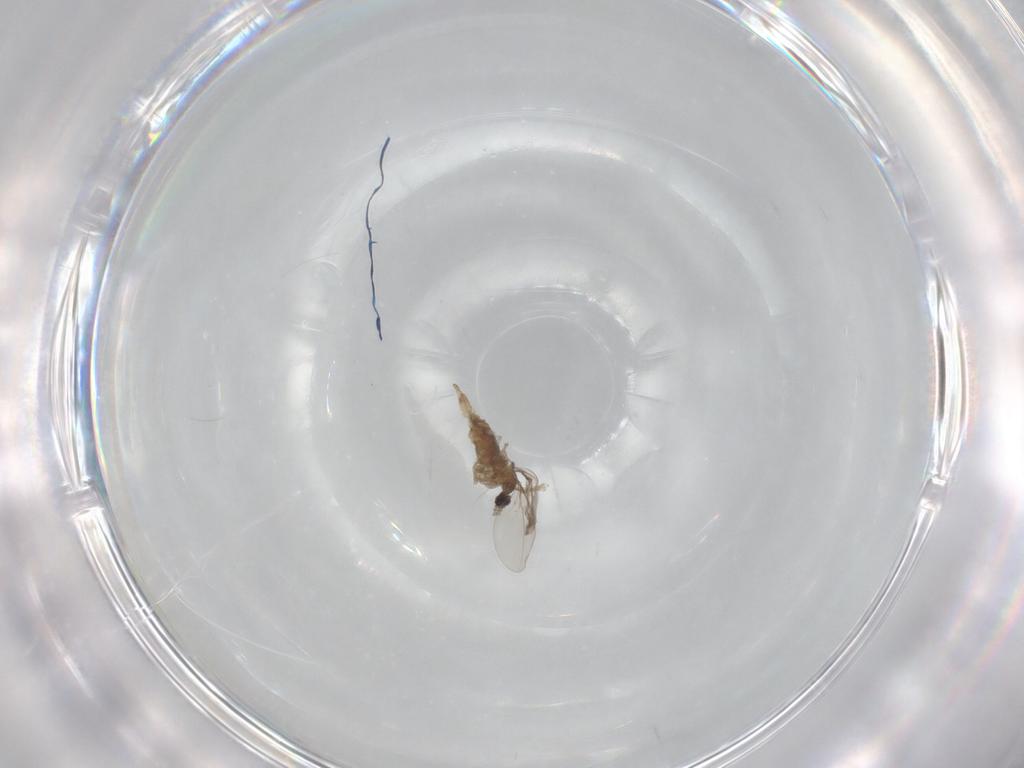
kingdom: Animalia
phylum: Arthropoda
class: Insecta
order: Diptera
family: Cecidomyiidae
